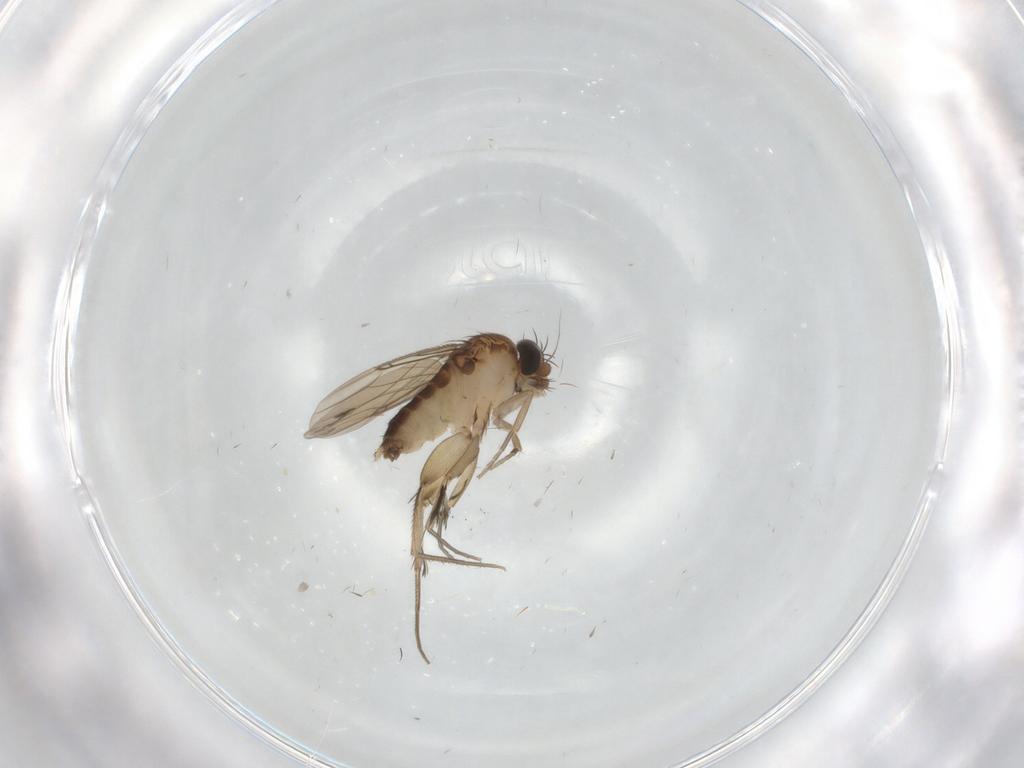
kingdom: Animalia
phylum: Arthropoda
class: Insecta
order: Diptera
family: Phoridae
